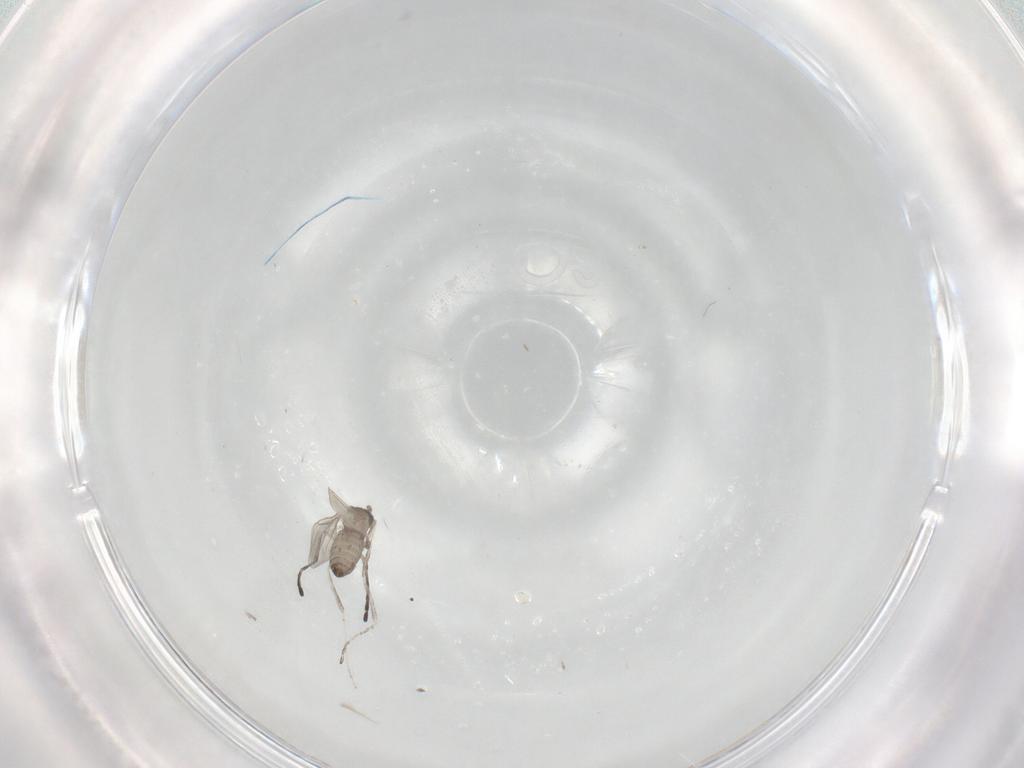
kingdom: Animalia
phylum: Arthropoda
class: Insecta
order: Diptera
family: Cecidomyiidae
